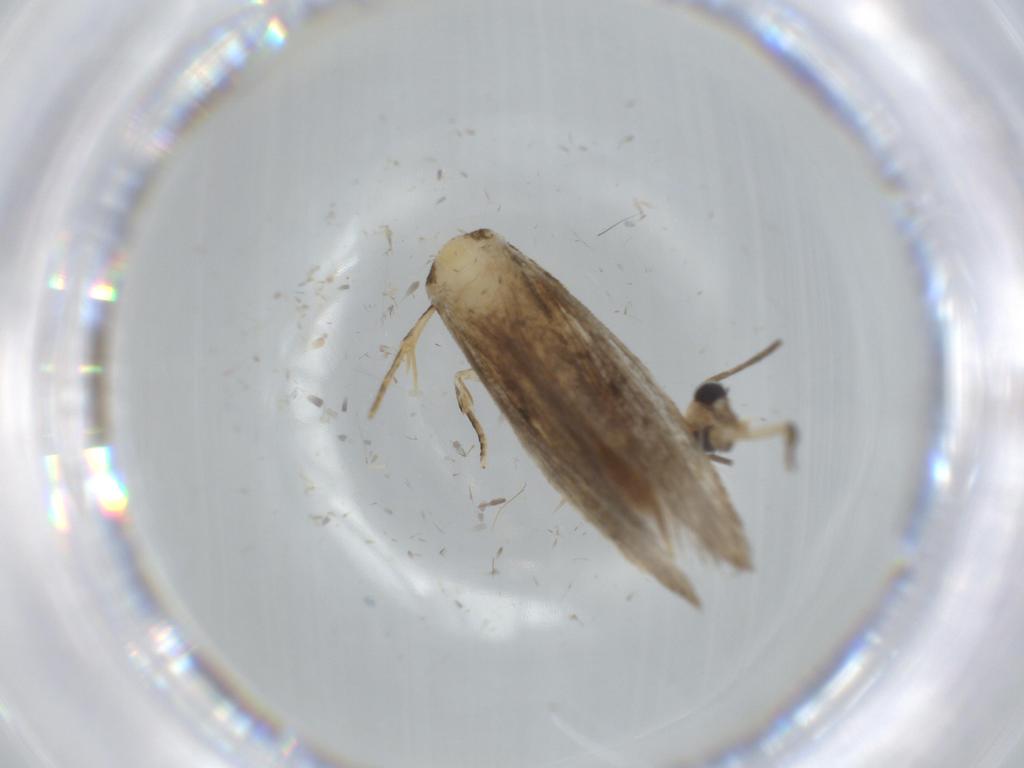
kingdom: Animalia
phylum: Arthropoda
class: Insecta
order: Lepidoptera
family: Tineidae
